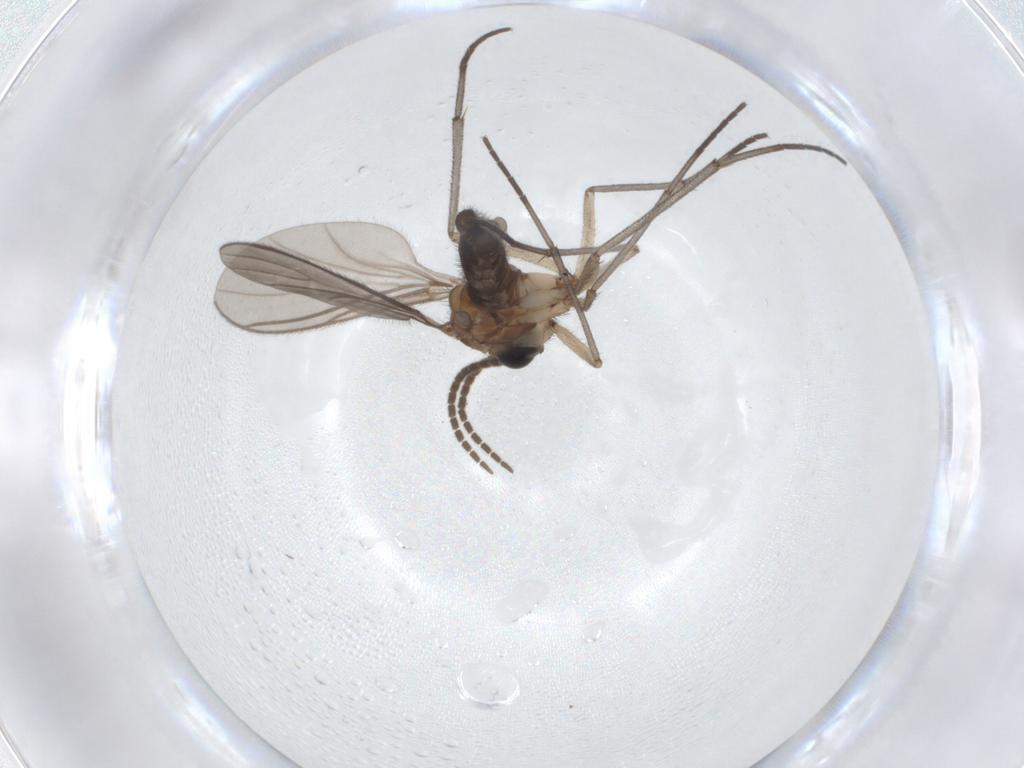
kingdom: Animalia
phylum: Arthropoda
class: Insecta
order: Diptera
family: Sciaridae
